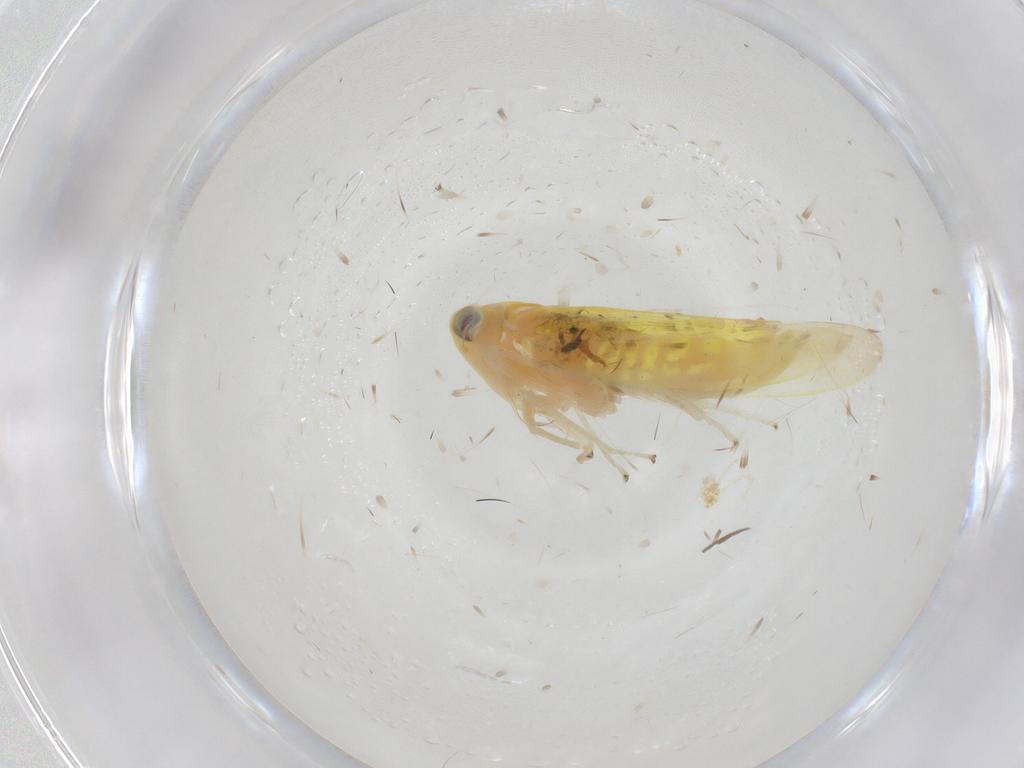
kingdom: Animalia
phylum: Arthropoda
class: Insecta
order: Hemiptera
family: Cicadellidae
